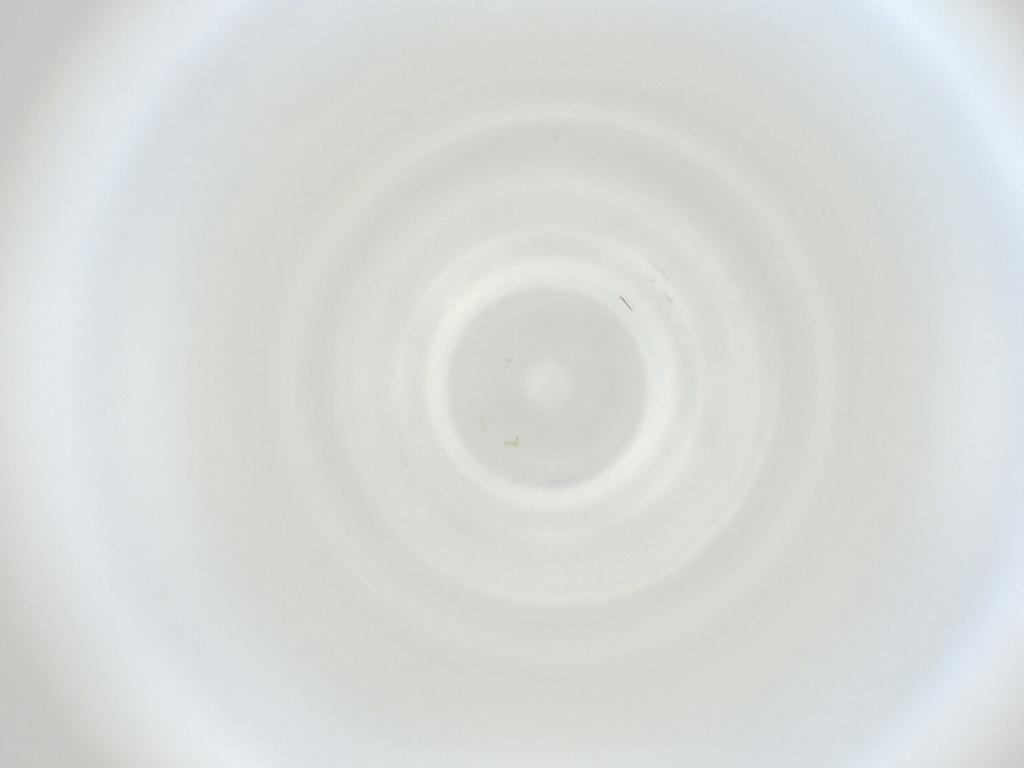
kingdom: Animalia
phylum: Arthropoda
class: Insecta
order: Diptera
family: Cecidomyiidae
